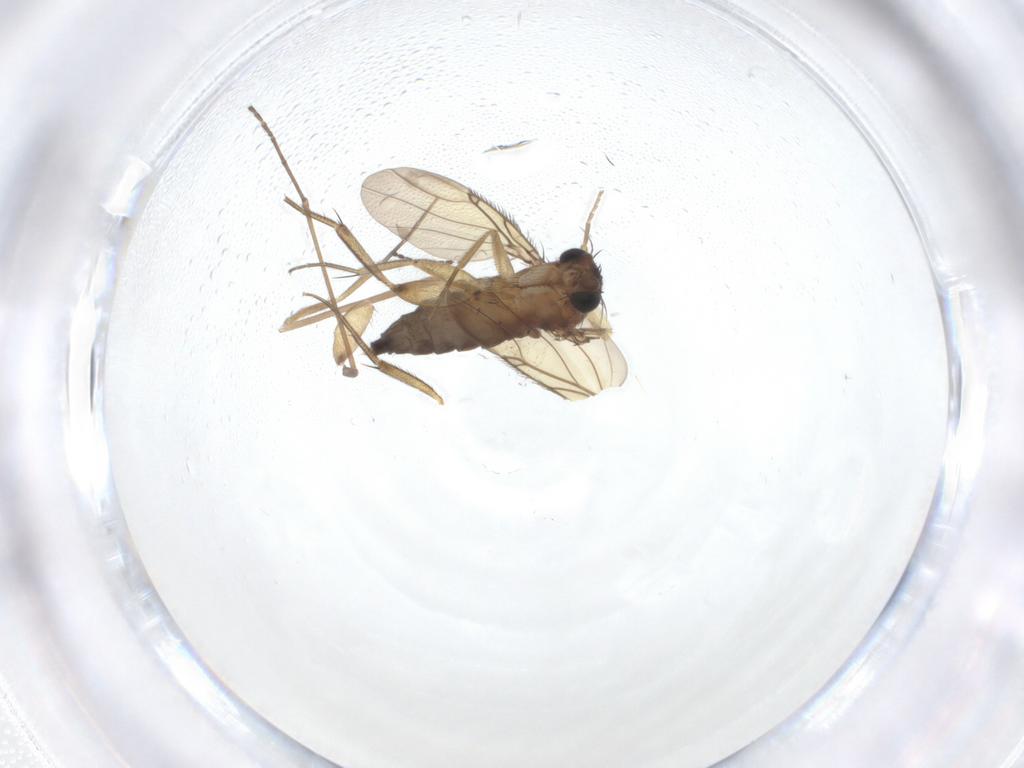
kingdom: Animalia
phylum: Arthropoda
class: Insecta
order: Diptera
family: Phoridae
